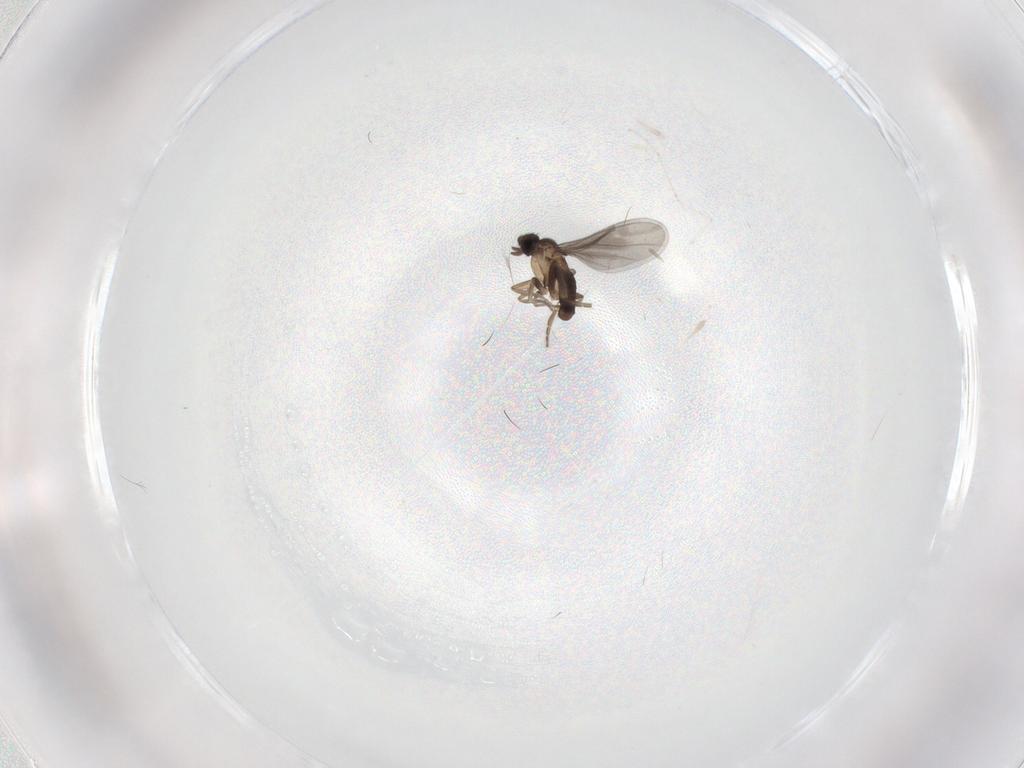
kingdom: Animalia
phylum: Arthropoda
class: Insecta
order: Diptera
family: Cecidomyiidae
